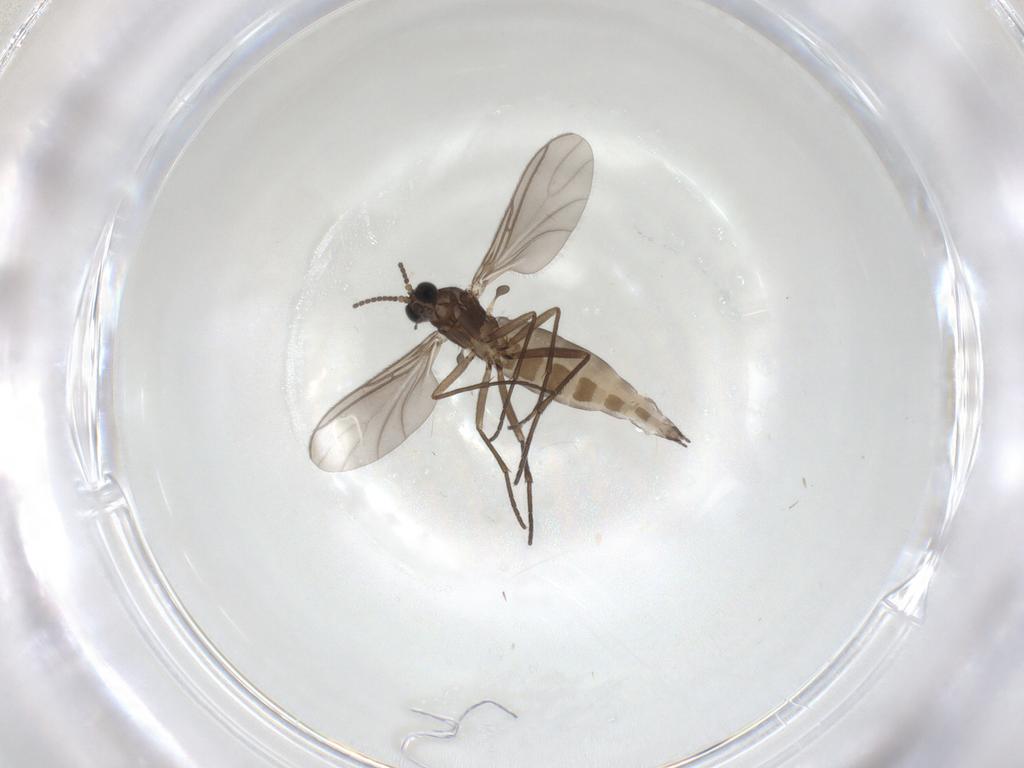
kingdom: Animalia
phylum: Arthropoda
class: Insecta
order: Diptera
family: Sciaridae
